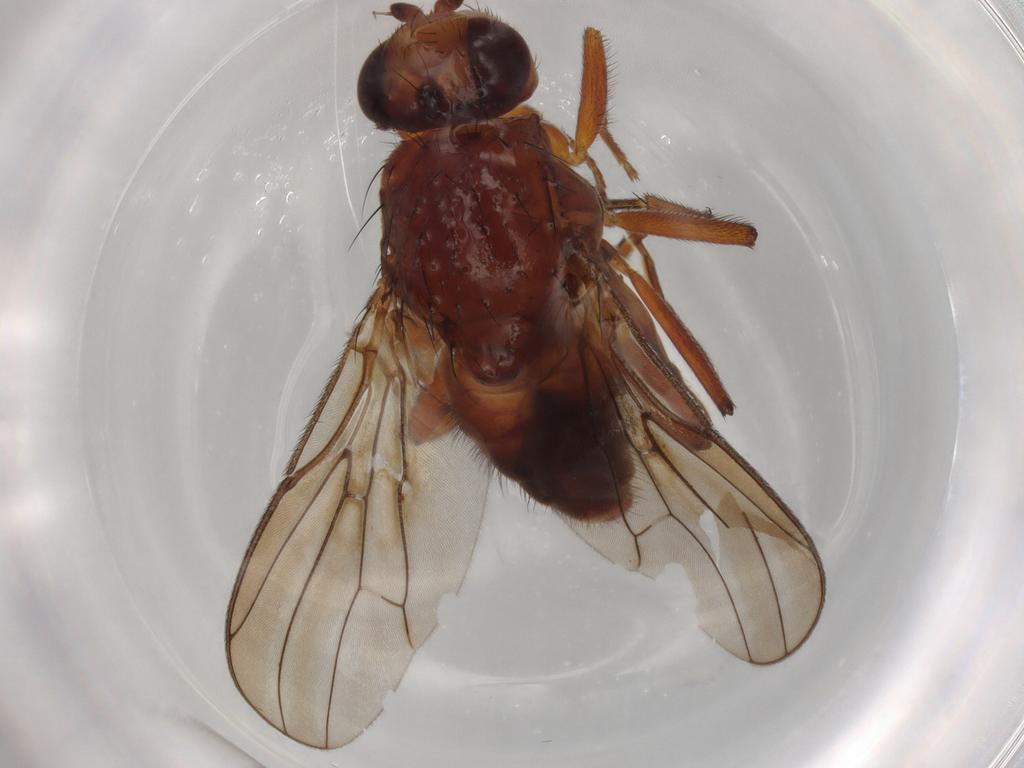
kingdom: Animalia
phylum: Arthropoda
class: Insecta
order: Diptera
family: Chloropidae
